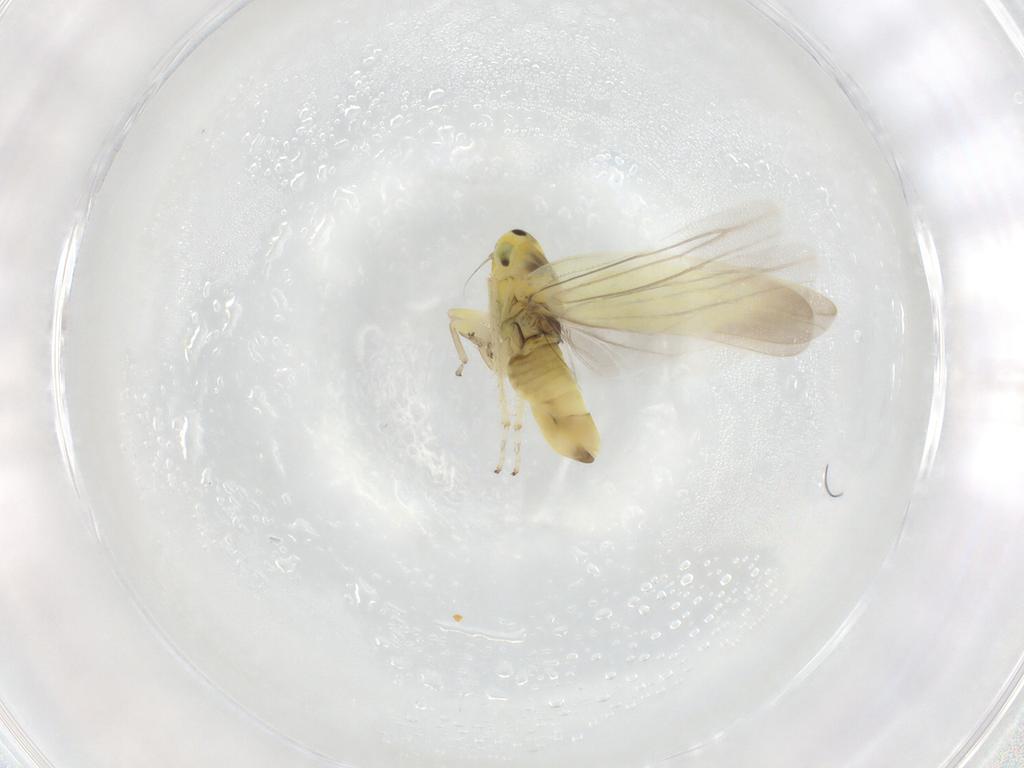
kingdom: Animalia
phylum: Arthropoda
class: Insecta
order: Hemiptera
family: Cicadellidae
